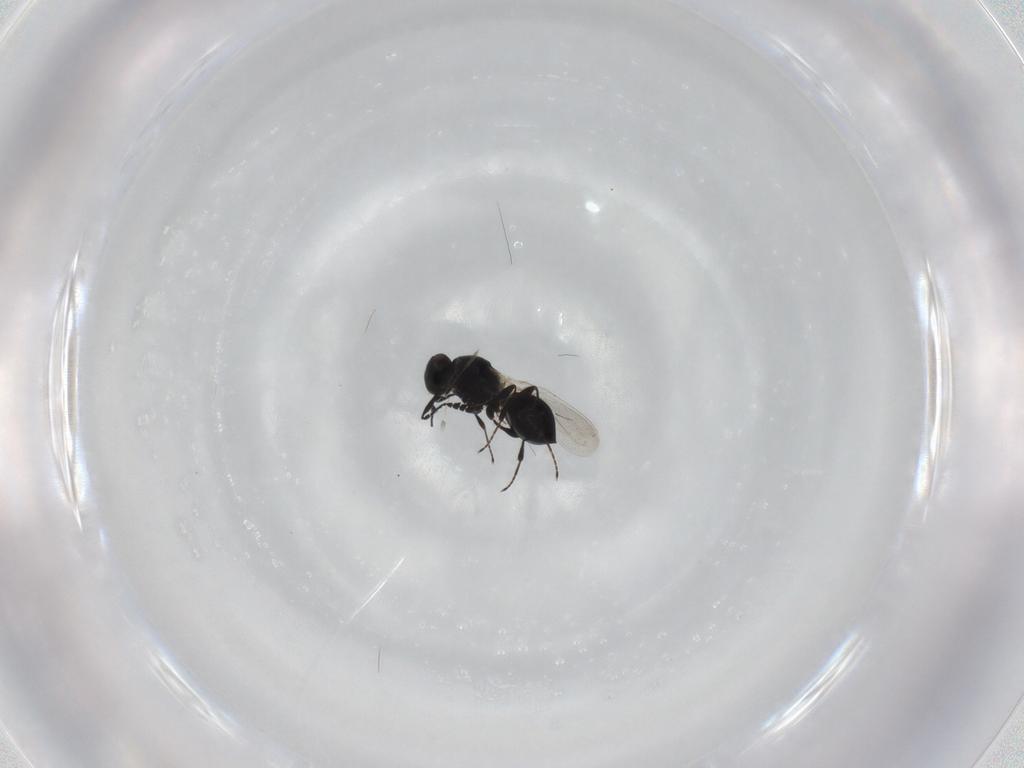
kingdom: Animalia
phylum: Arthropoda
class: Insecta
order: Hymenoptera
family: Platygastridae
